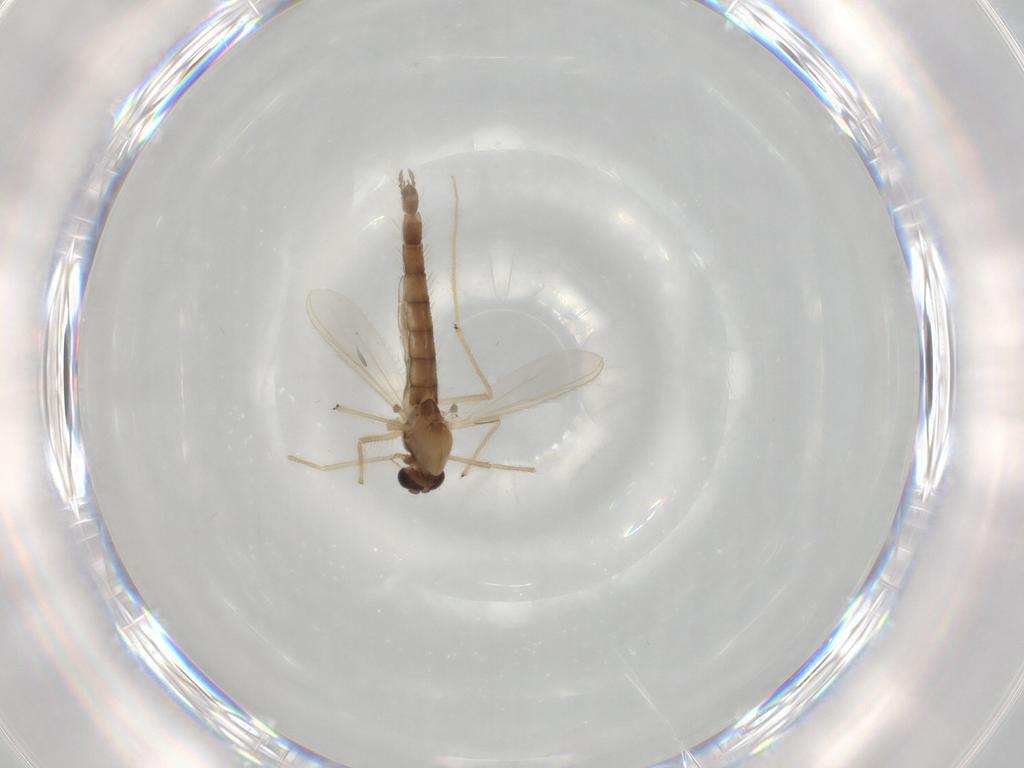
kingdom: Animalia
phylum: Arthropoda
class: Insecta
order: Diptera
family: Chironomidae
